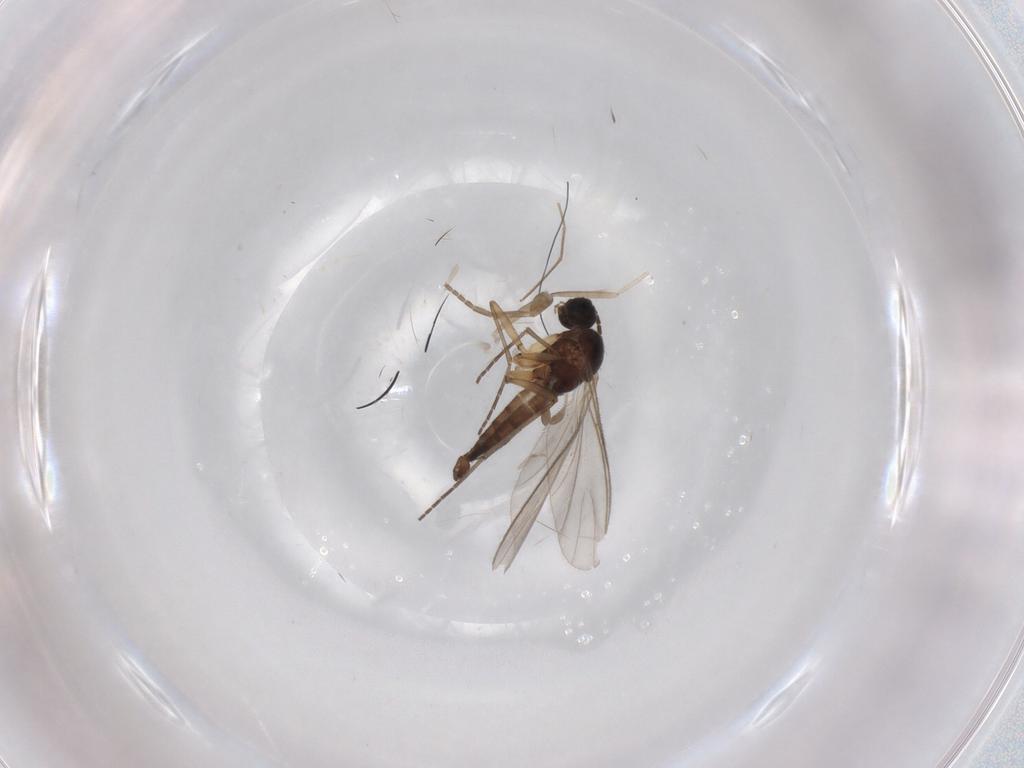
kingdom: Animalia
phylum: Arthropoda
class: Insecta
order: Diptera
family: Sciaridae
